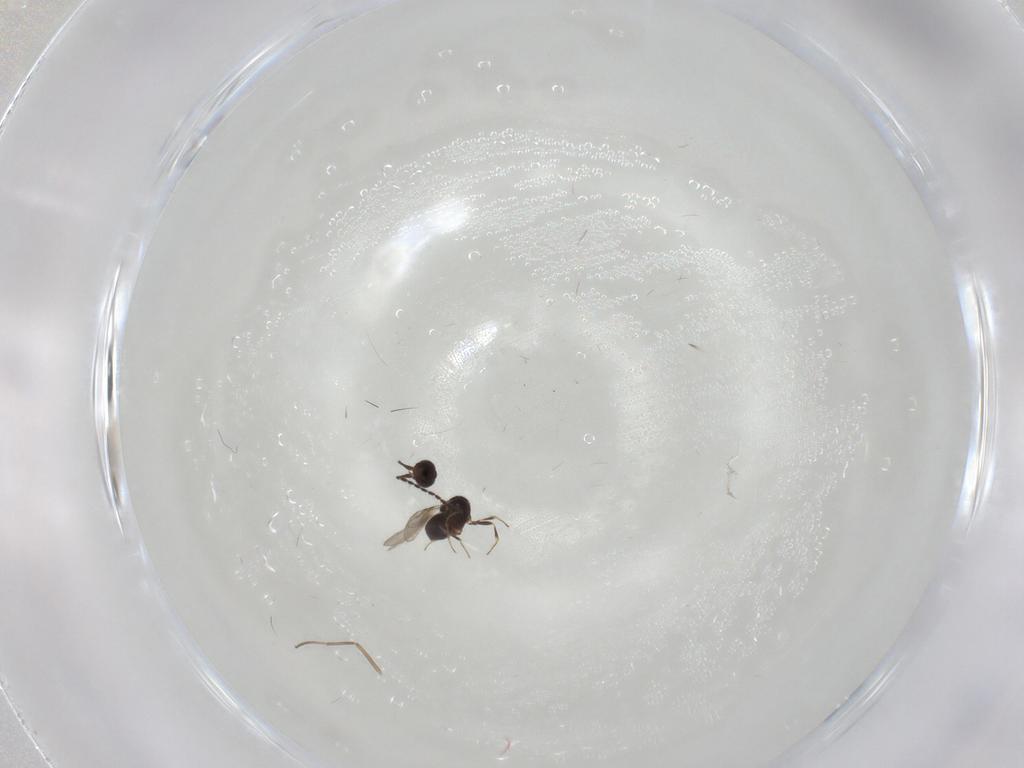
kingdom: Animalia
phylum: Arthropoda
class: Insecta
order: Hymenoptera
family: Ceraphronidae
